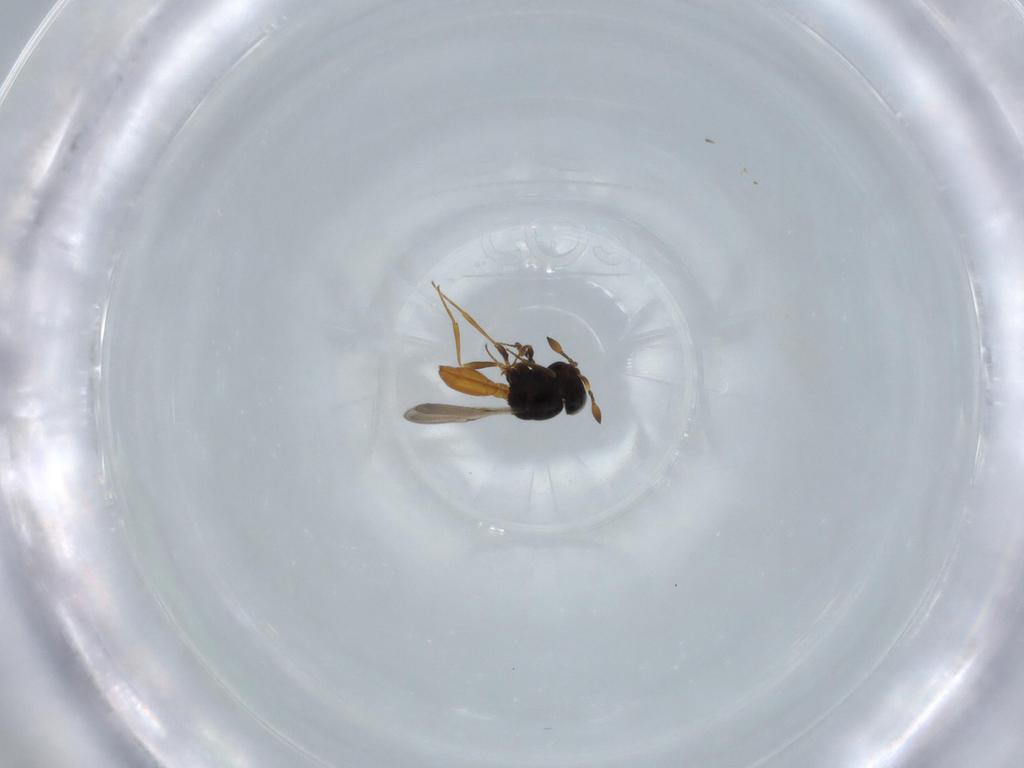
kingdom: Animalia
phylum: Arthropoda
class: Insecta
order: Hymenoptera
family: Scelionidae
